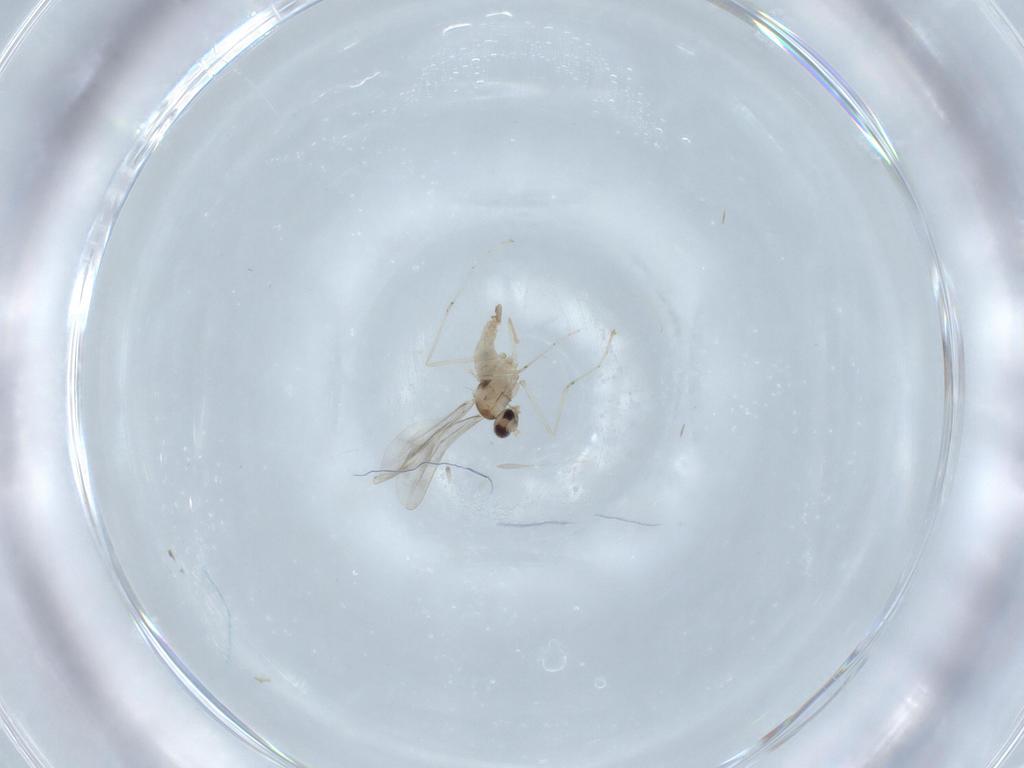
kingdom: Animalia
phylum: Arthropoda
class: Insecta
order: Diptera
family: Cecidomyiidae
